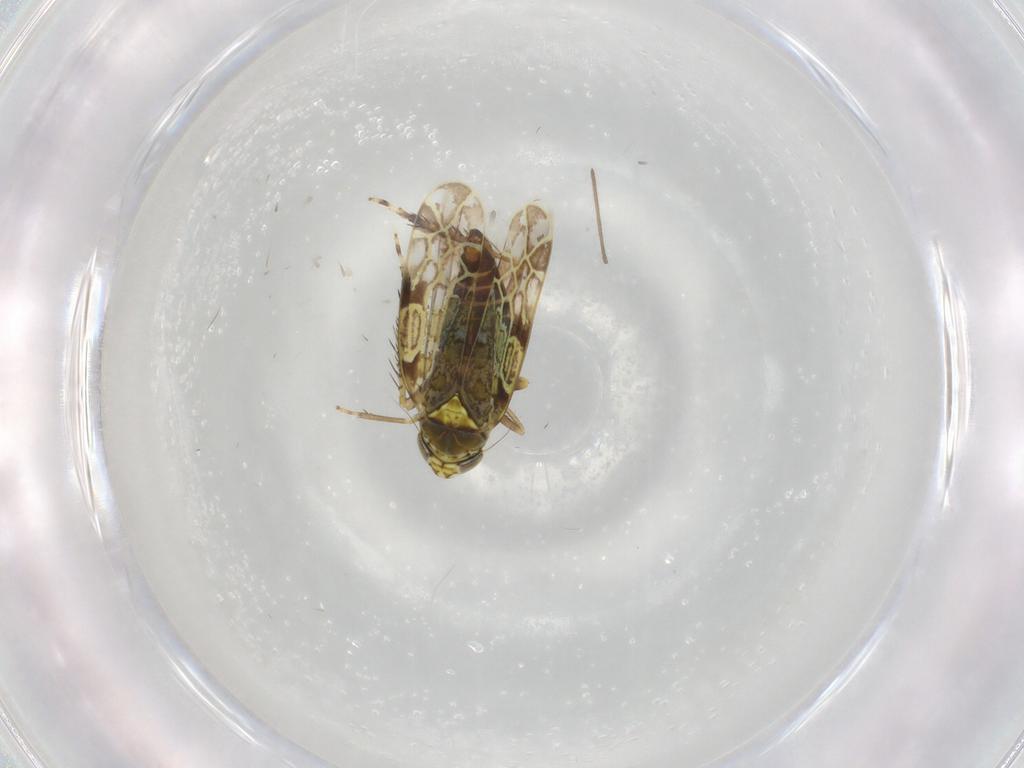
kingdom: Animalia
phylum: Arthropoda
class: Insecta
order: Hemiptera
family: Cicadellidae
